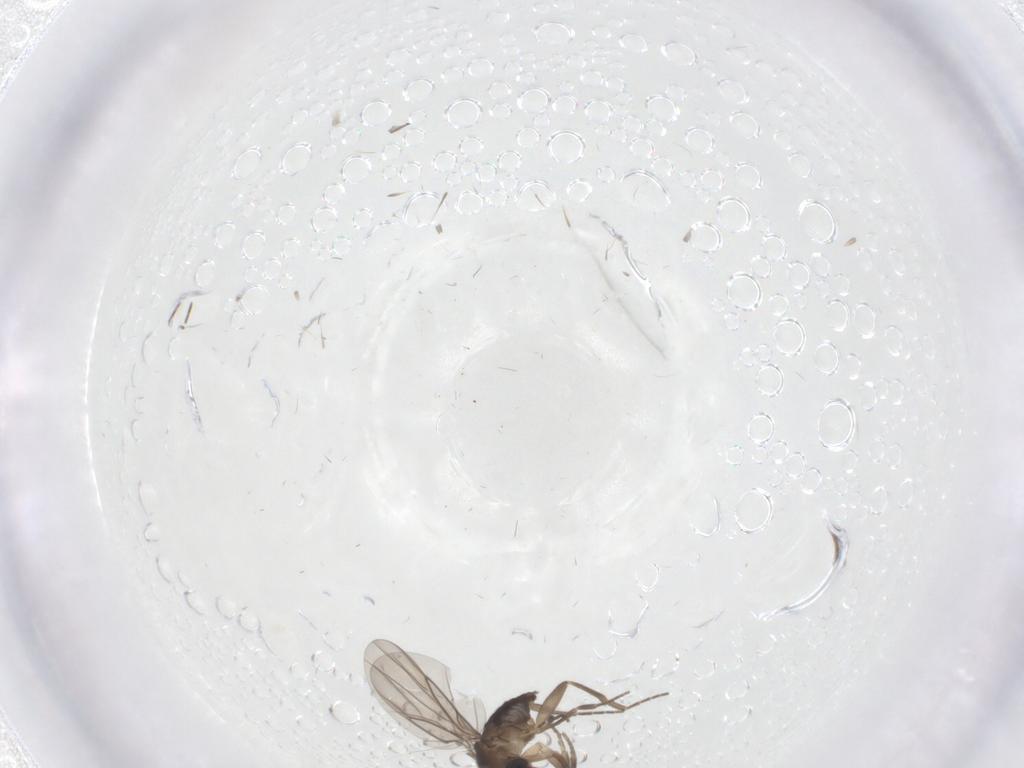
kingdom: Animalia
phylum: Arthropoda
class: Insecta
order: Diptera
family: Phoridae
